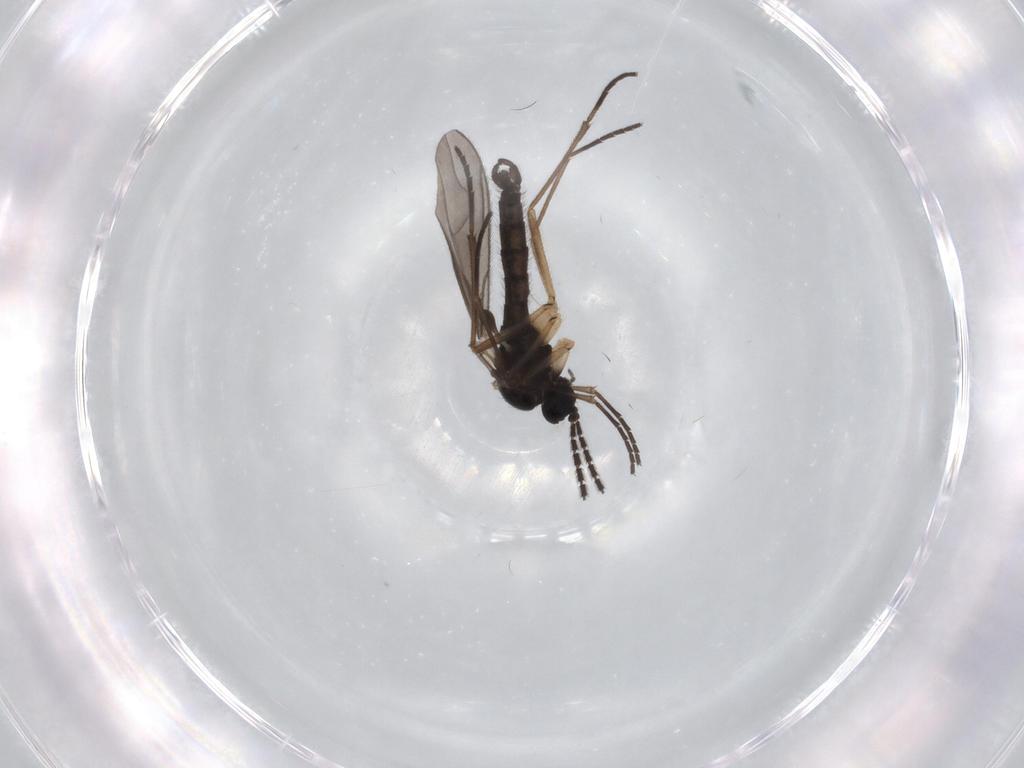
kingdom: Animalia
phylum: Arthropoda
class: Insecta
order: Diptera
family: Sciaridae
